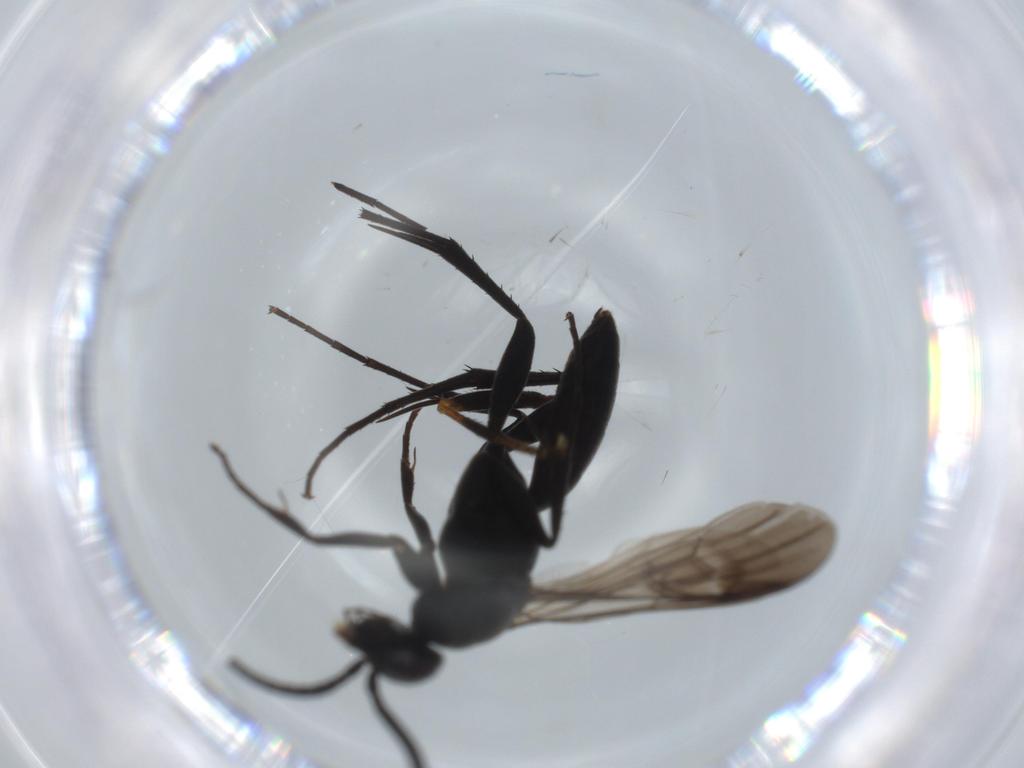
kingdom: Animalia
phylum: Arthropoda
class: Insecta
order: Hymenoptera
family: Pompilidae
